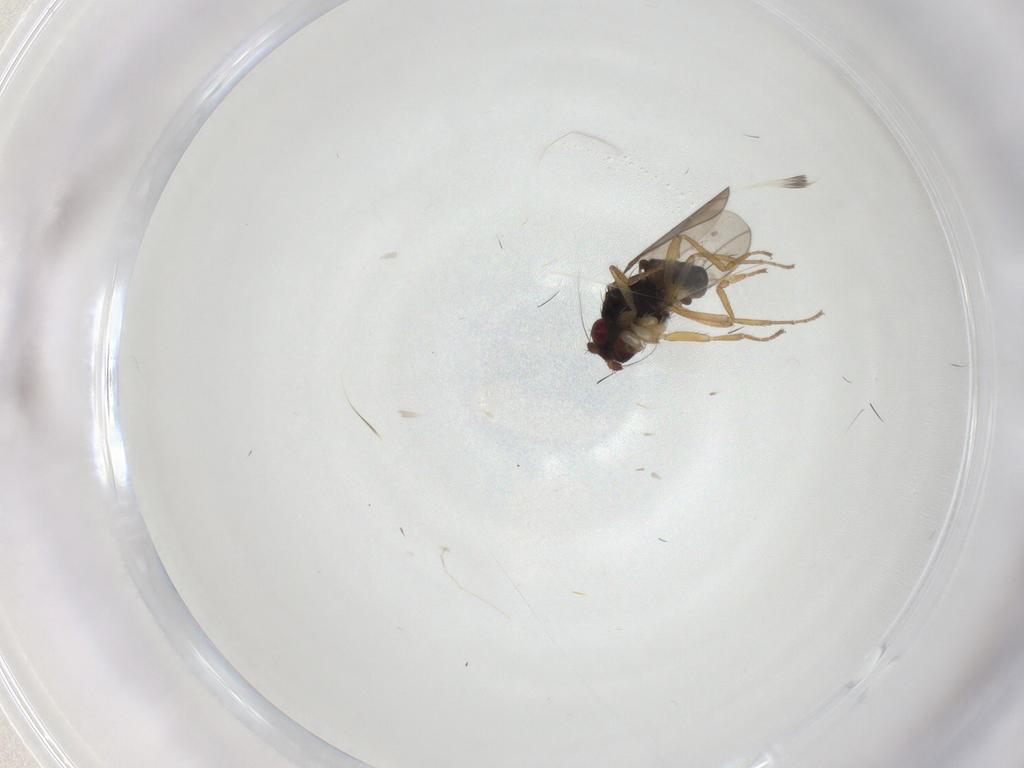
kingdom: Animalia
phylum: Arthropoda
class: Insecta
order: Diptera
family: Sphaeroceridae
